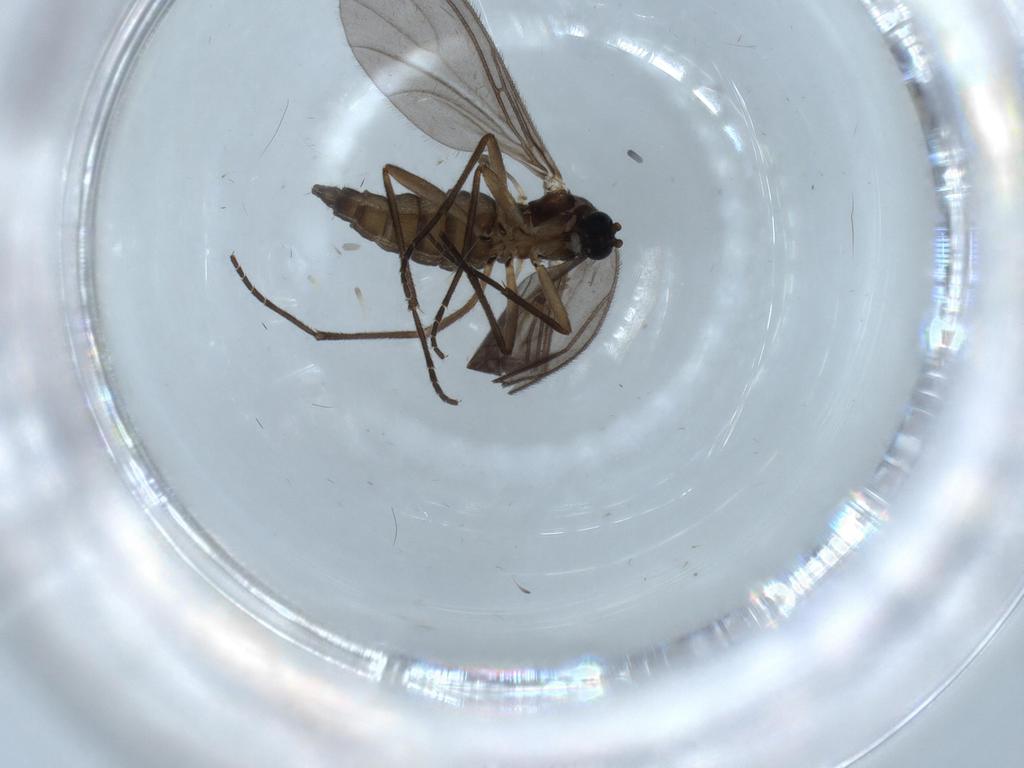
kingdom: Animalia
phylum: Arthropoda
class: Insecta
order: Diptera
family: Sciaridae
